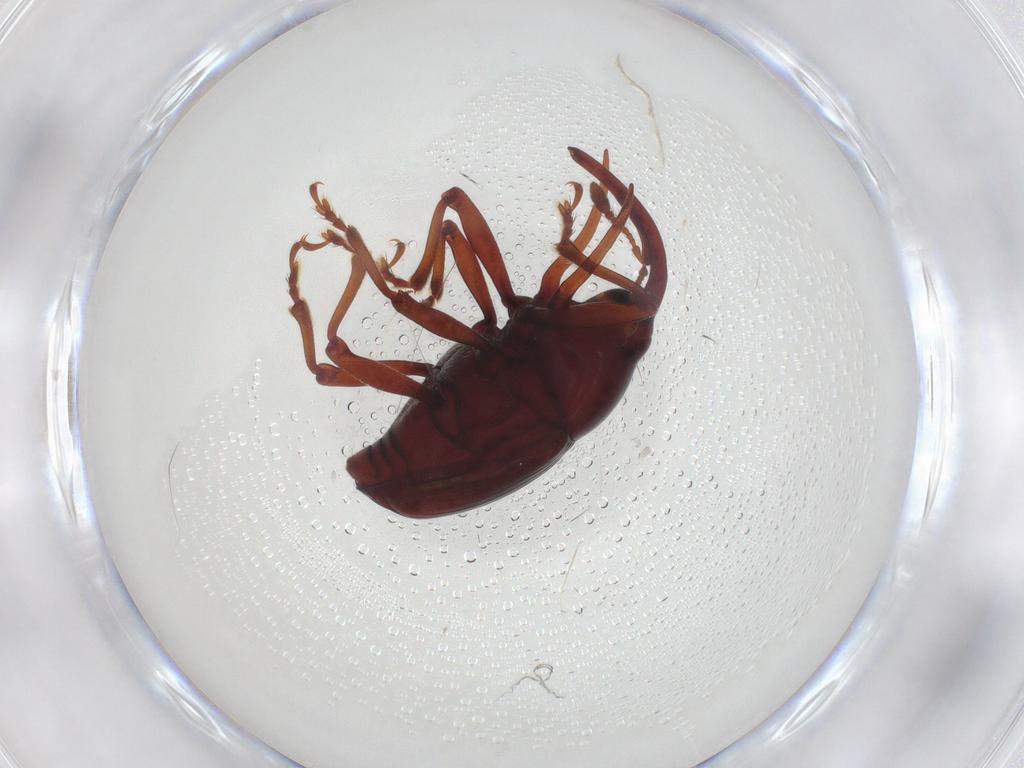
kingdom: Animalia
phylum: Arthropoda
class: Insecta
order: Coleoptera
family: Curculionidae
